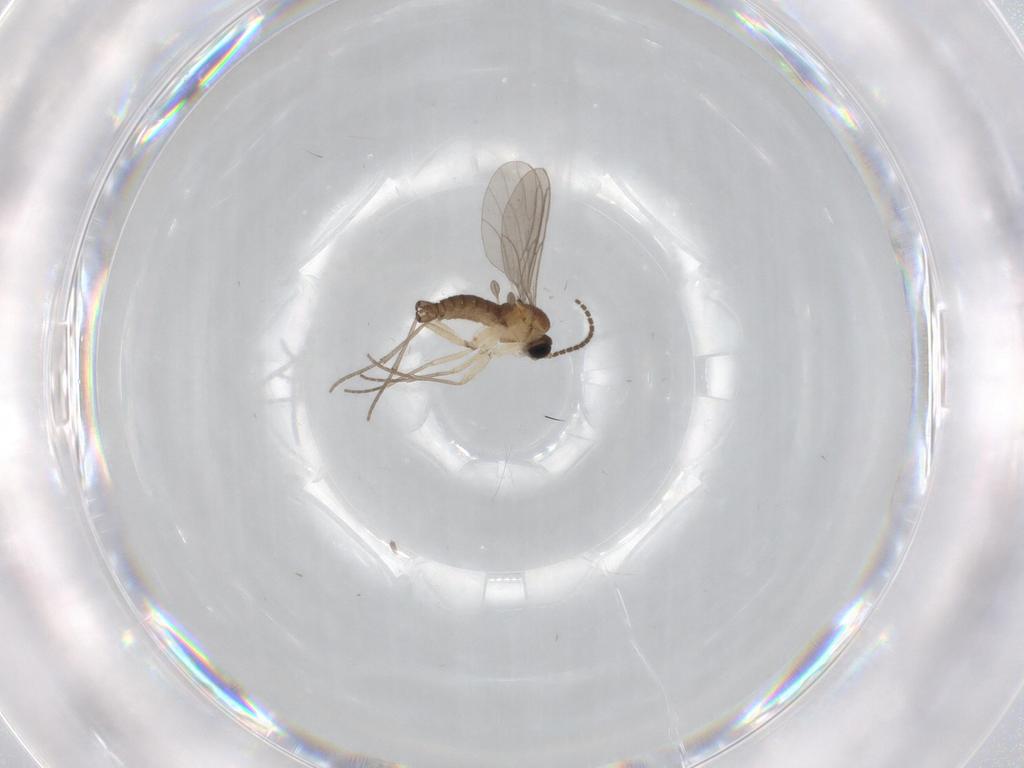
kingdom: Animalia
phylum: Arthropoda
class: Insecta
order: Diptera
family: Sciaridae
